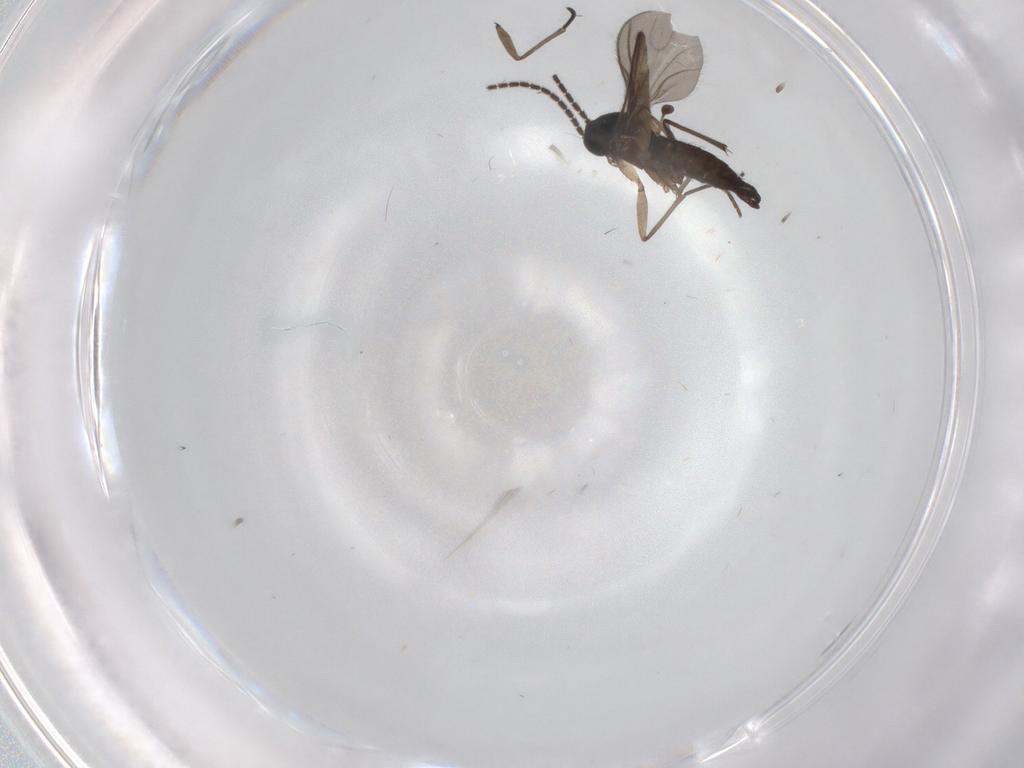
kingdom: Animalia
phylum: Arthropoda
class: Insecta
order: Diptera
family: Sciaridae
